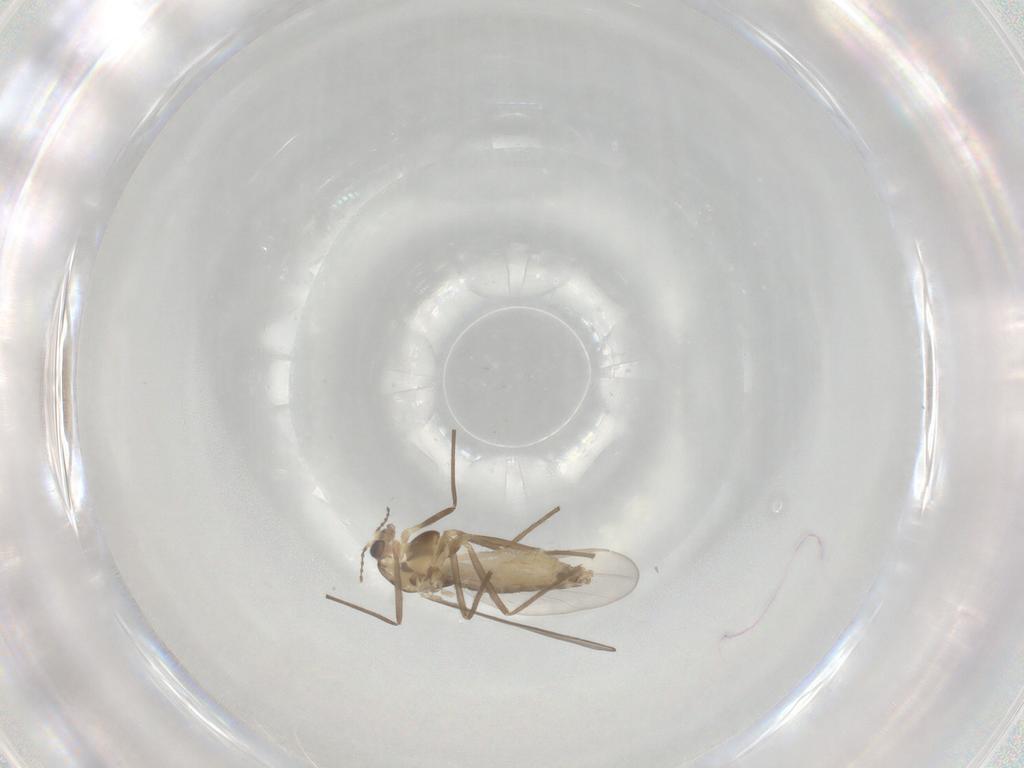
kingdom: Animalia
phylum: Arthropoda
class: Insecta
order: Diptera
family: Chironomidae
